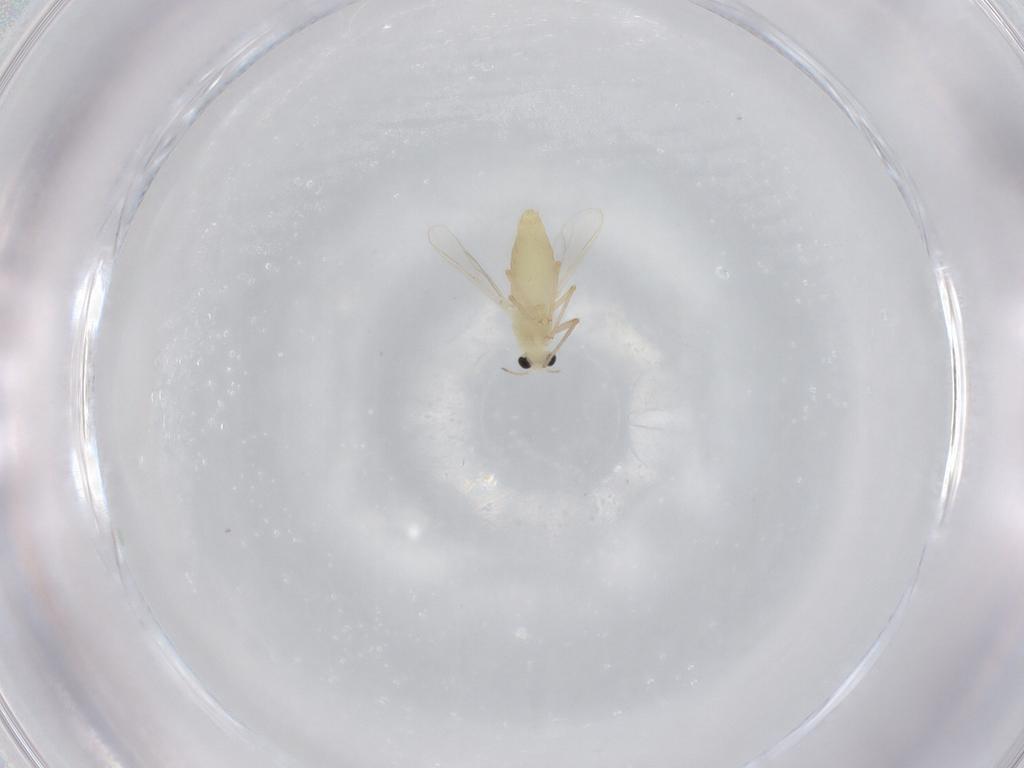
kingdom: Animalia
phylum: Arthropoda
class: Insecta
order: Diptera
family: Chironomidae
